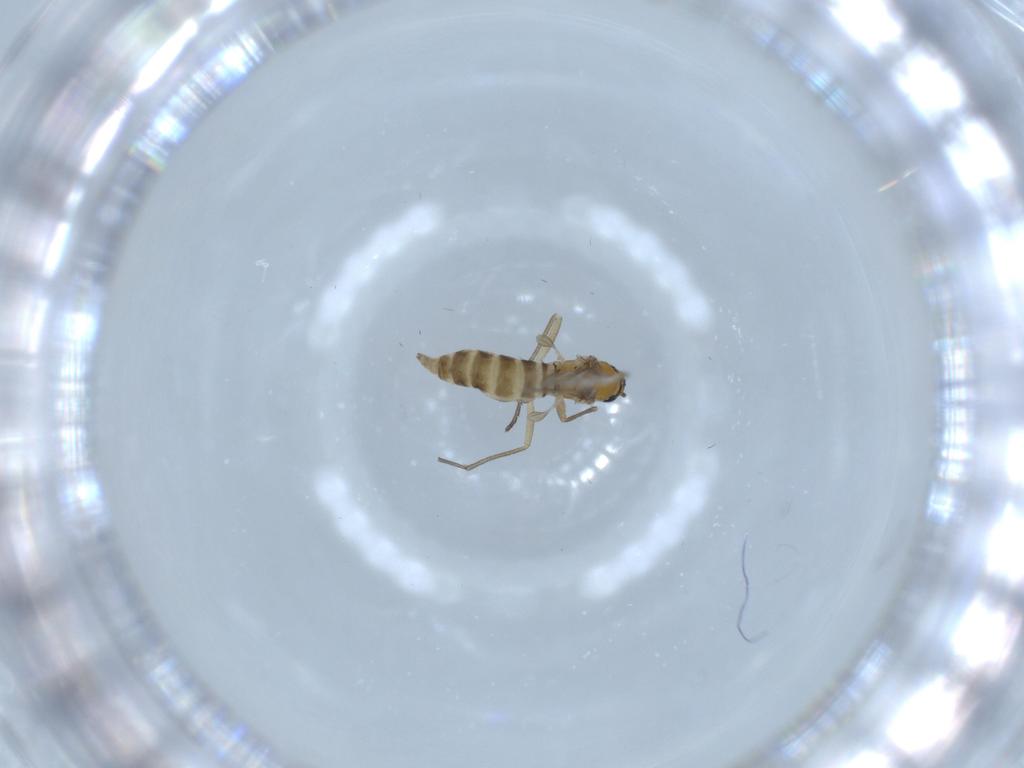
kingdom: Animalia
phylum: Arthropoda
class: Insecta
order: Diptera
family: Sciaridae
